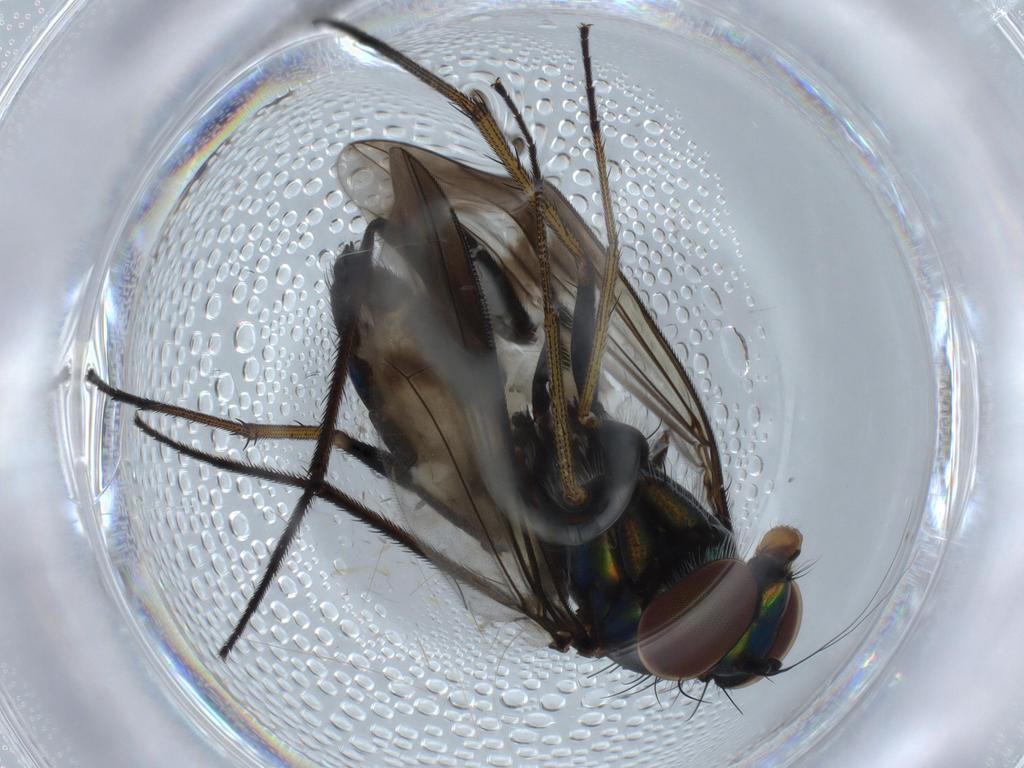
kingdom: Animalia
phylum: Arthropoda
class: Insecta
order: Diptera
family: Dolichopodidae
